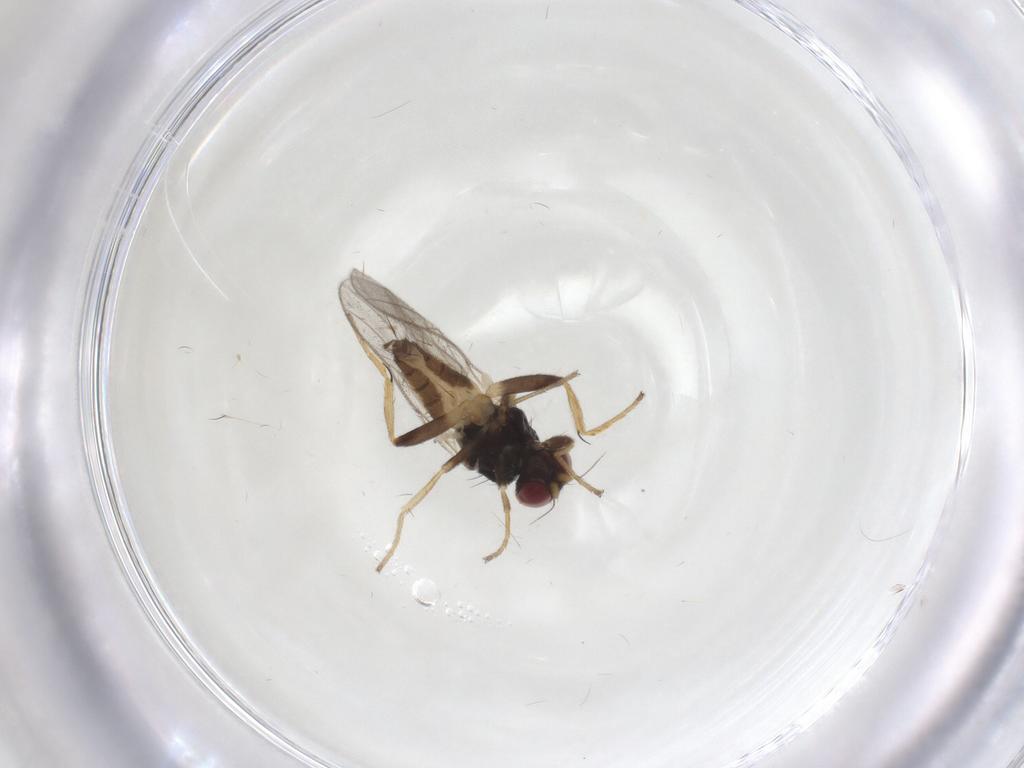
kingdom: Animalia
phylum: Arthropoda
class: Insecta
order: Diptera
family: Chloropidae
